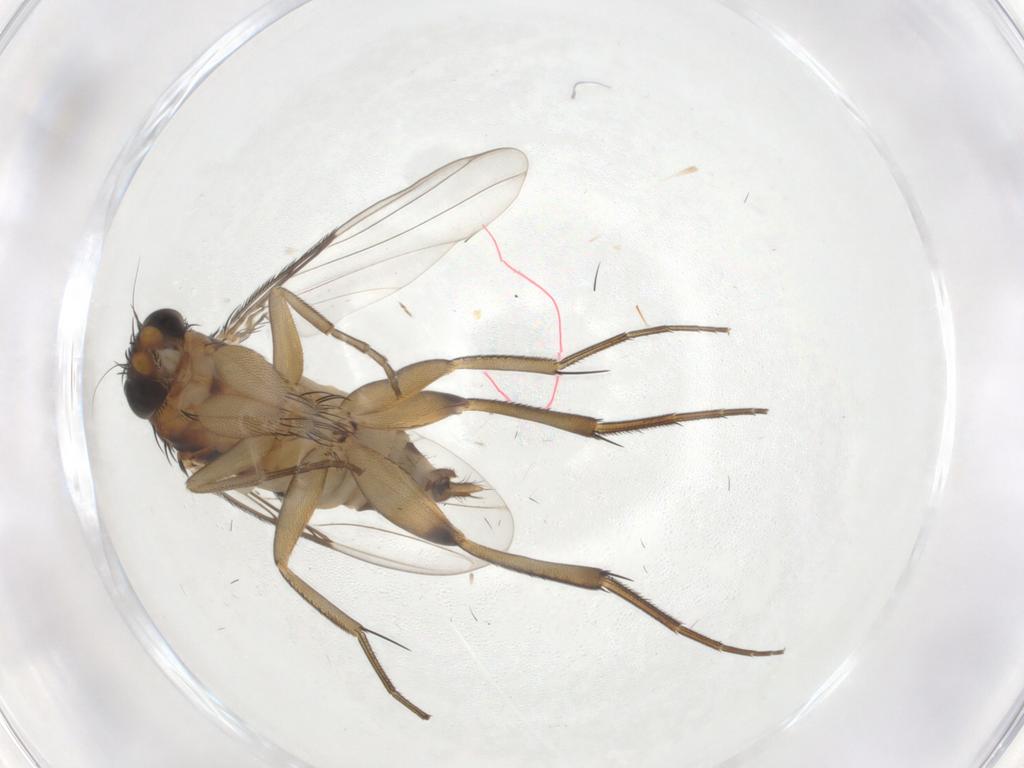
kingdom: Animalia
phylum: Arthropoda
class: Insecta
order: Diptera
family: Phoridae
